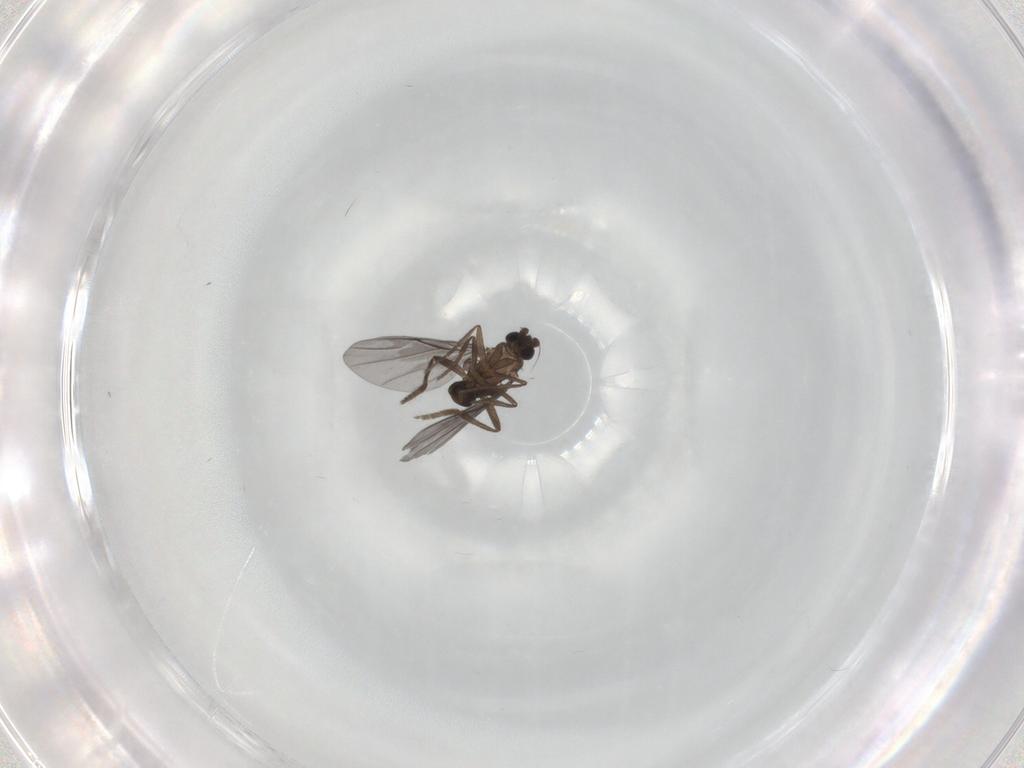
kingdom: Animalia
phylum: Arthropoda
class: Insecta
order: Diptera
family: Phoridae
